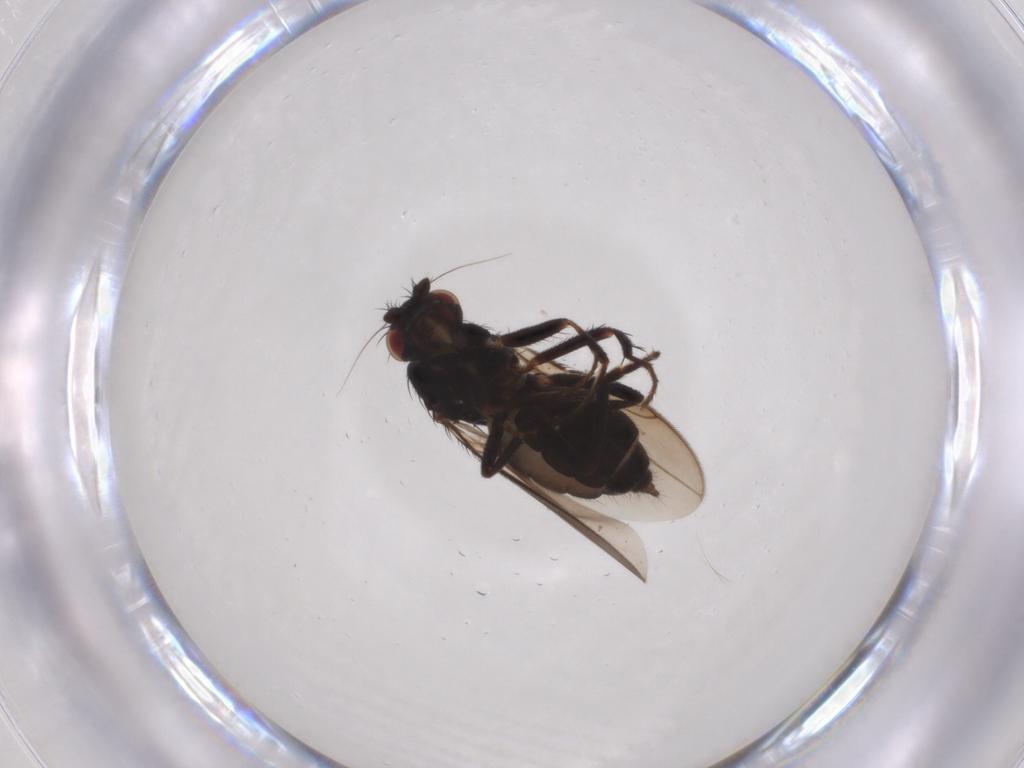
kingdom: Animalia
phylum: Arthropoda
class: Insecta
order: Diptera
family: Sphaeroceridae
